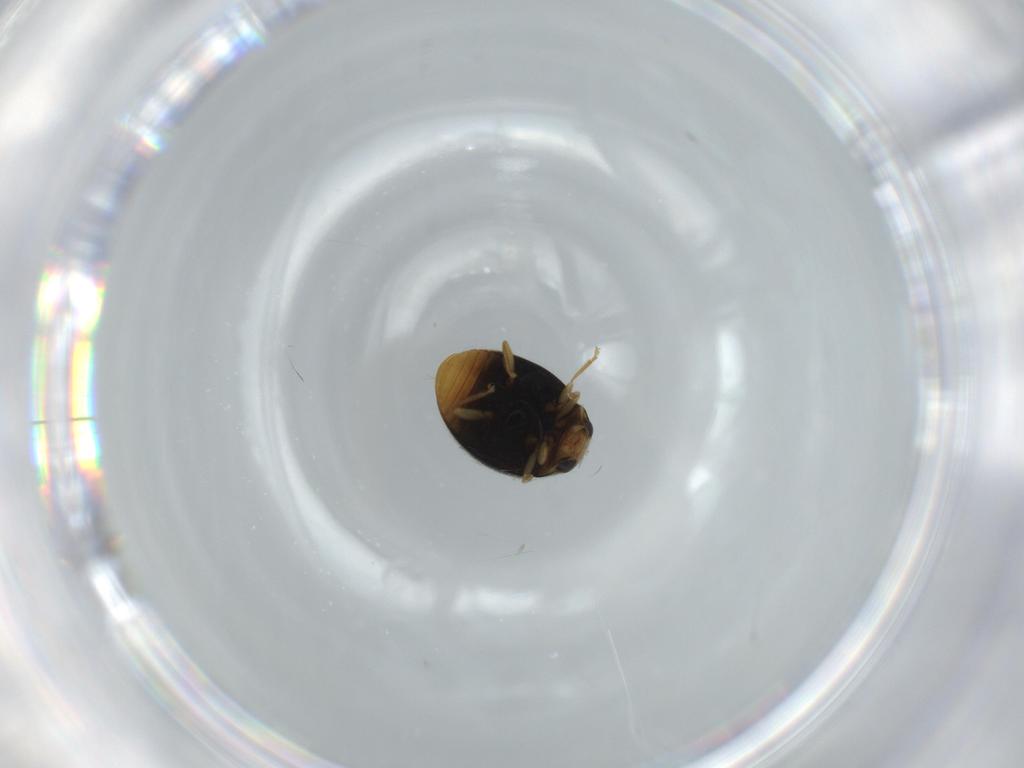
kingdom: Animalia
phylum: Arthropoda
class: Insecta
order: Coleoptera
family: Coccinellidae
